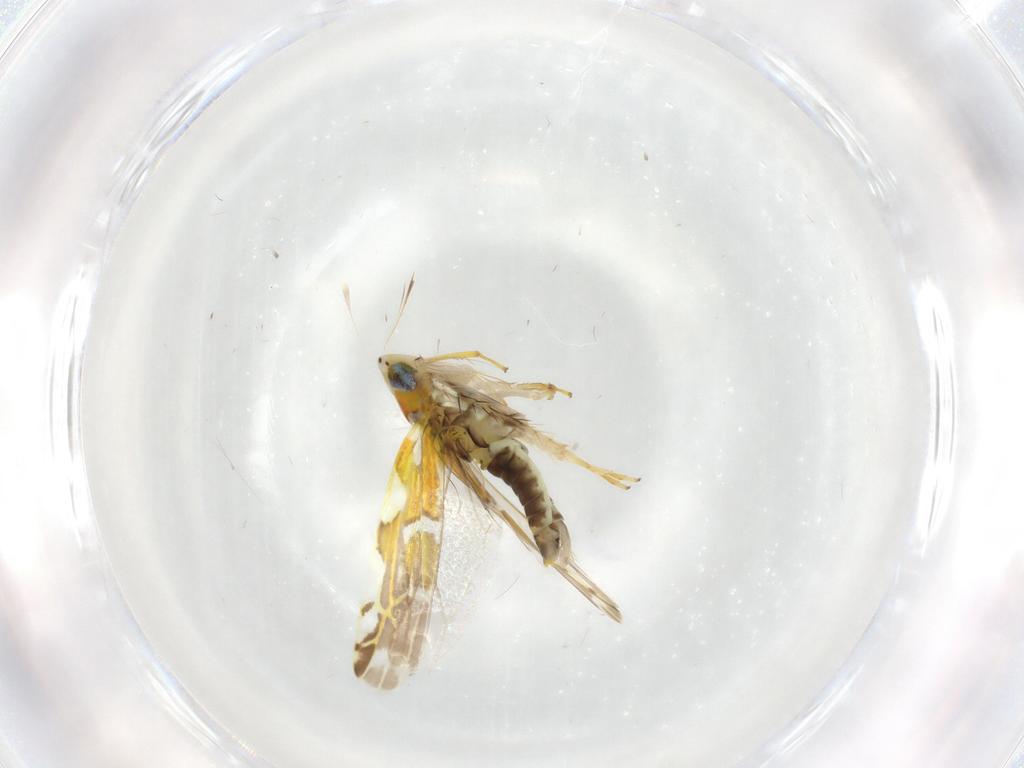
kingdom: Animalia
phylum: Arthropoda
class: Insecta
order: Hemiptera
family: Cicadellidae
